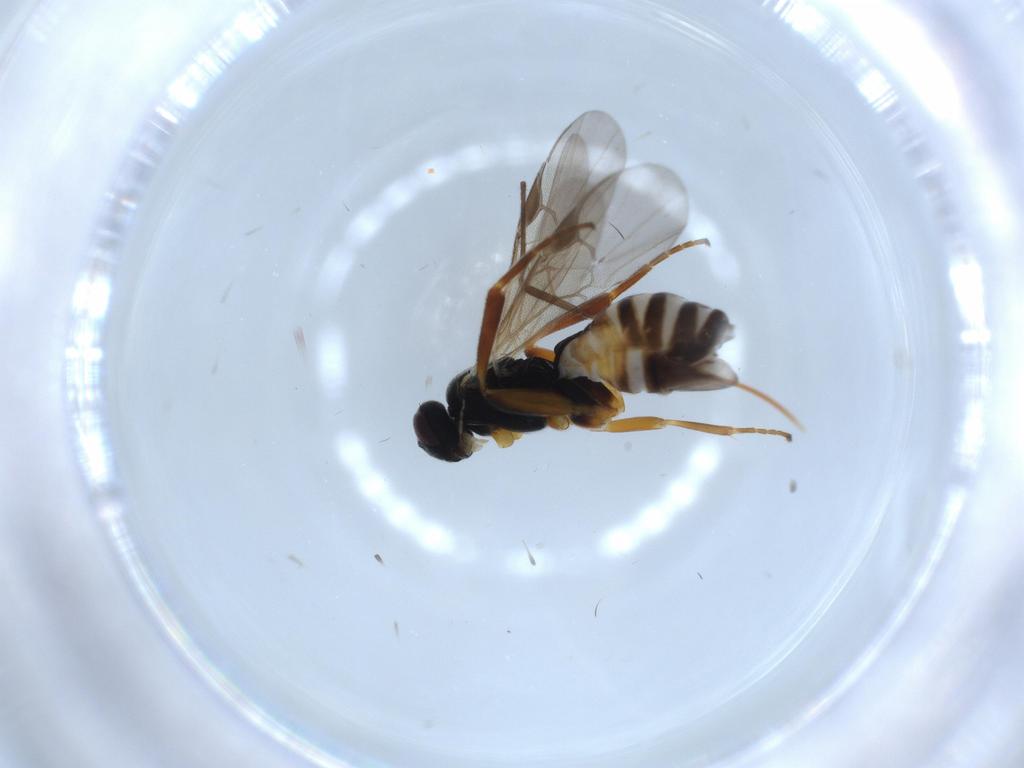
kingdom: Animalia
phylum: Arthropoda
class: Insecta
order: Hymenoptera
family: Braconidae
